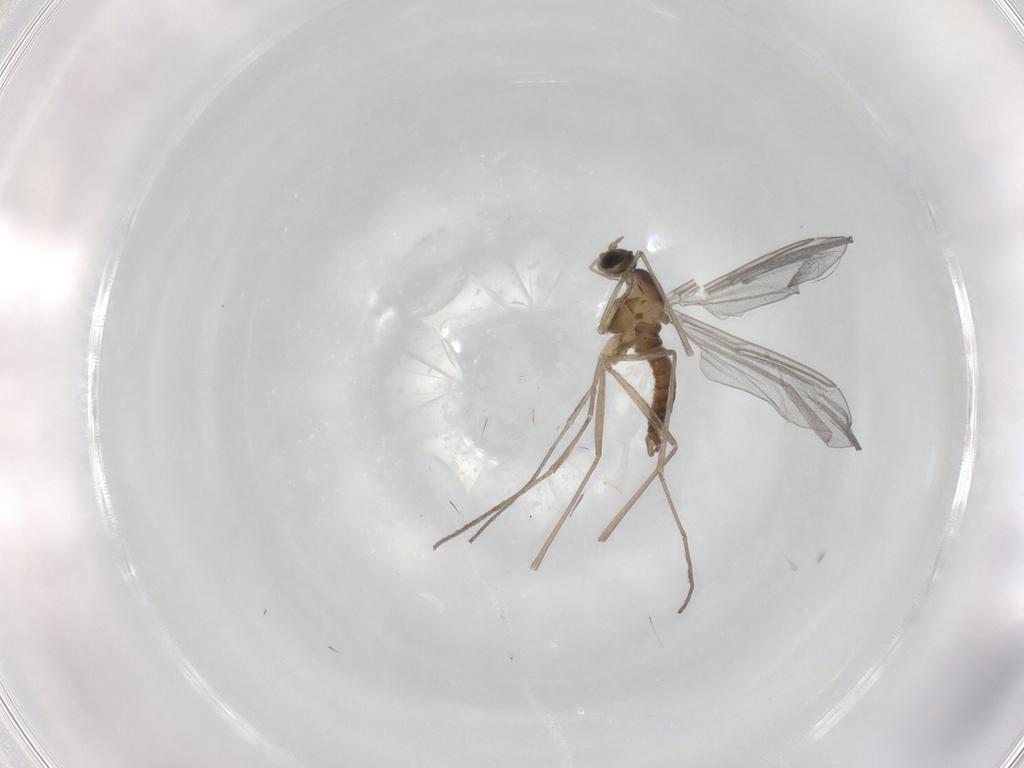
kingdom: Animalia
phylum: Arthropoda
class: Insecta
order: Diptera
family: Cecidomyiidae
